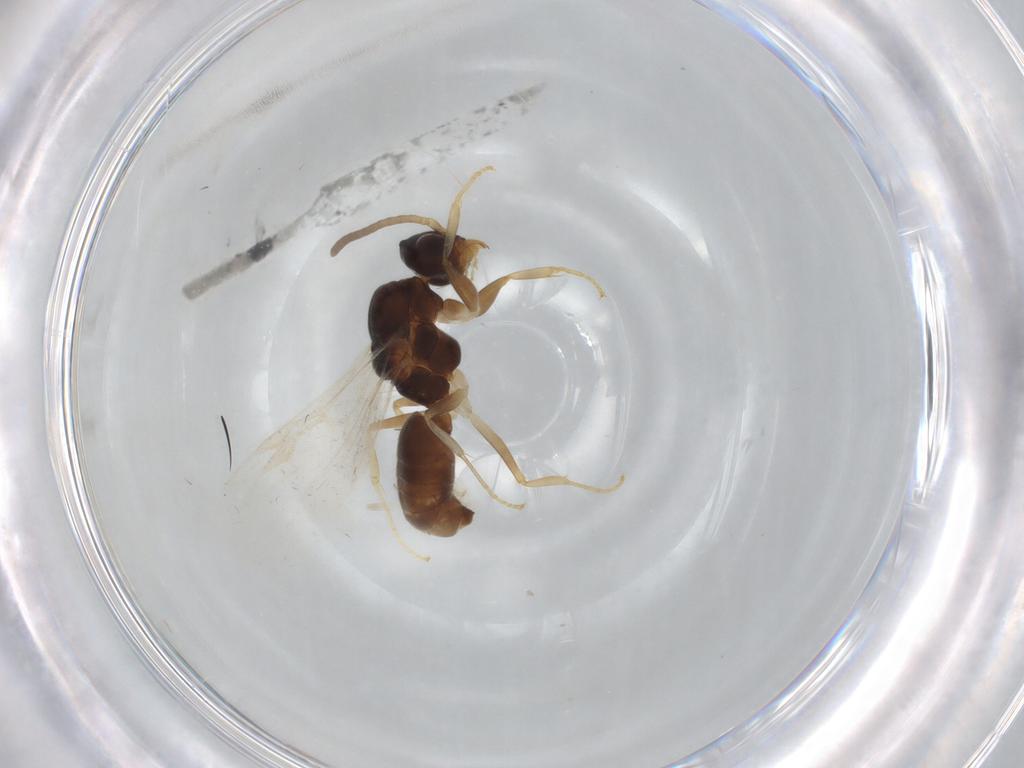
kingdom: Animalia
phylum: Arthropoda
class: Insecta
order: Hymenoptera
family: Formicidae
